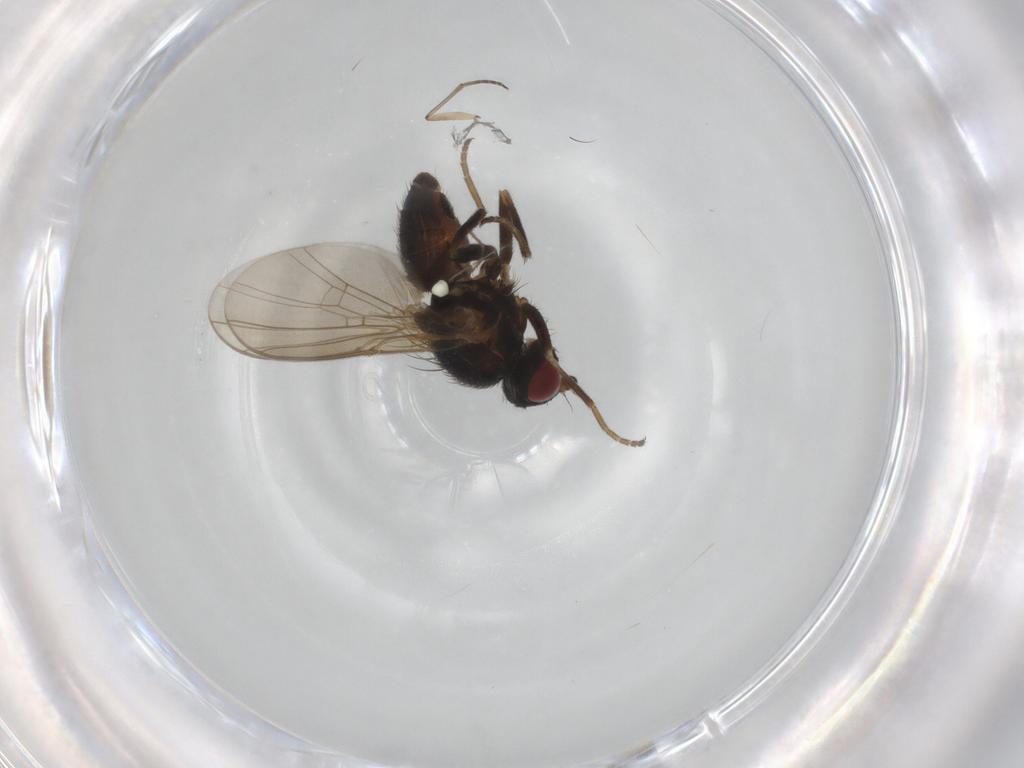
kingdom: Animalia
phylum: Arthropoda
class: Insecta
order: Diptera
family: Agromyzidae
